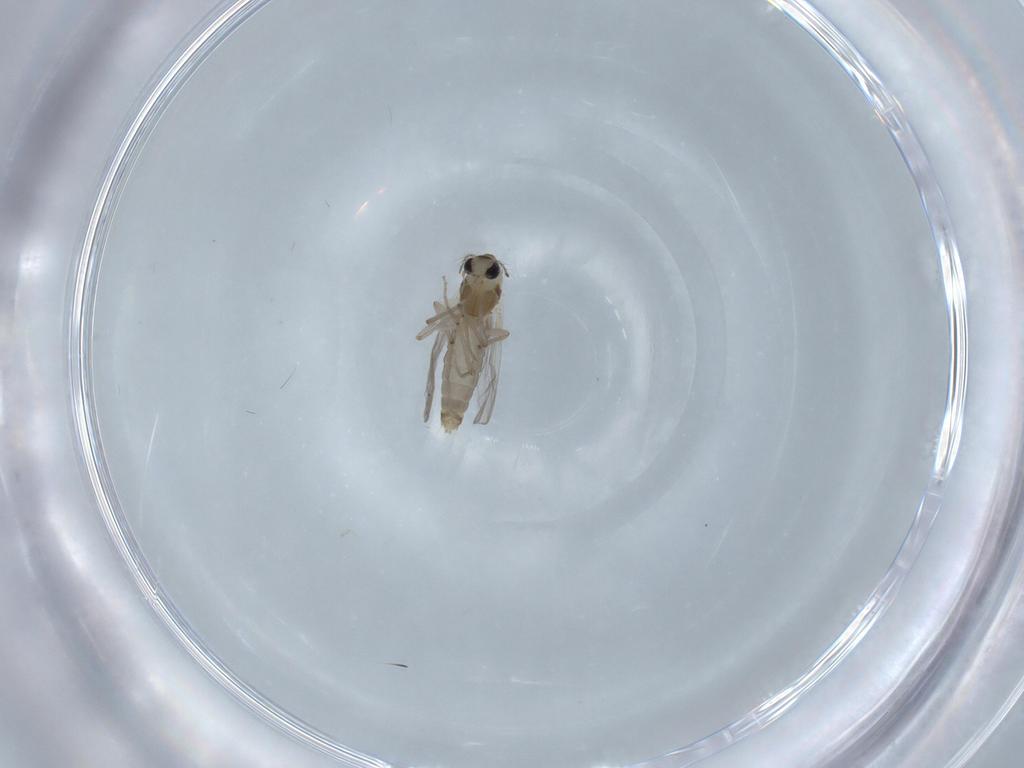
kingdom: Animalia
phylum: Arthropoda
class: Insecta
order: Diptera
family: Chironomidae
